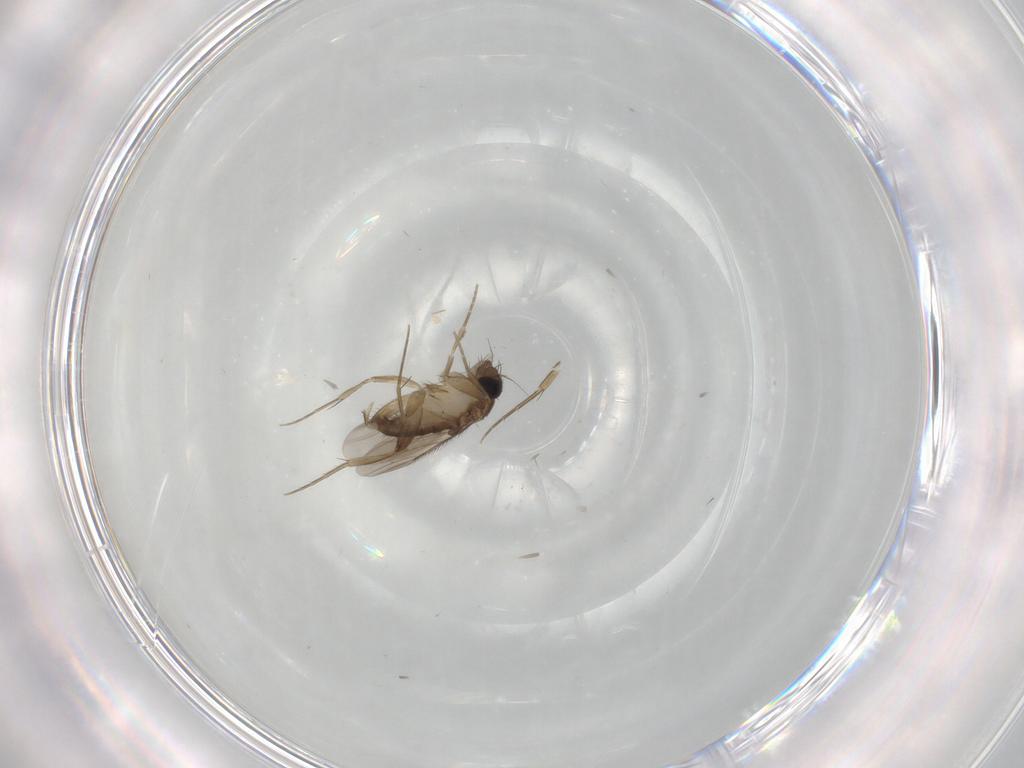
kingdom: Animalia
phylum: Arthropoda
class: Insecta
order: Diptera
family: Phoridae
